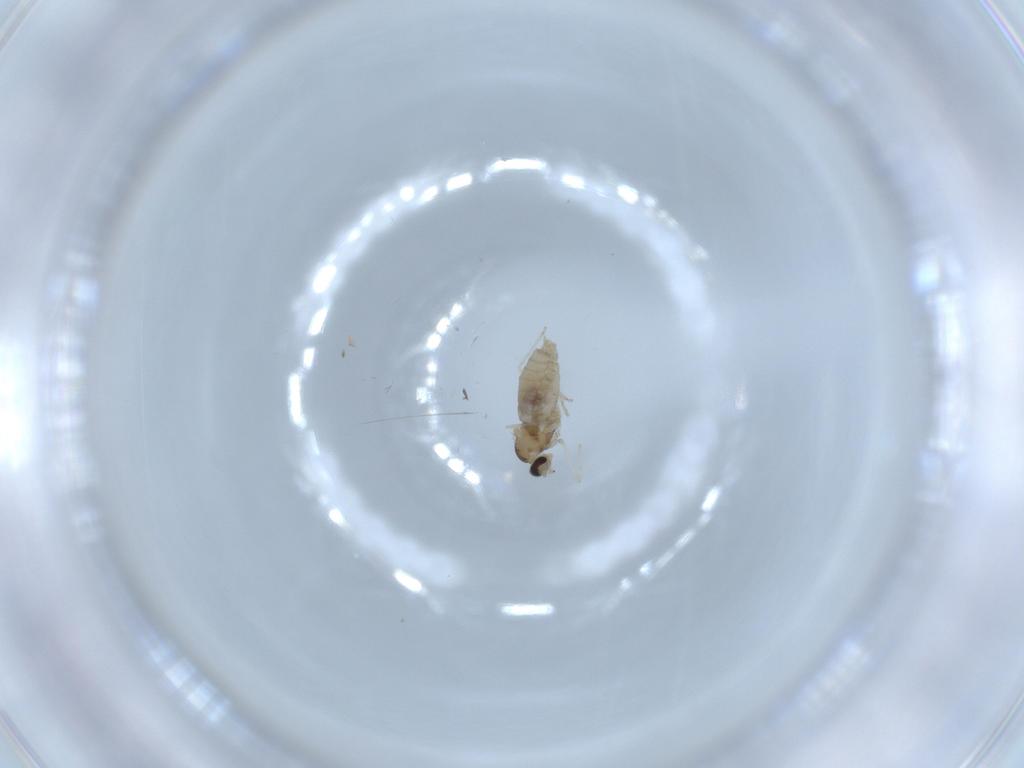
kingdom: Animalia
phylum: Arthropoda
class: Insecta
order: Diptera
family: Cecidomyiidae
